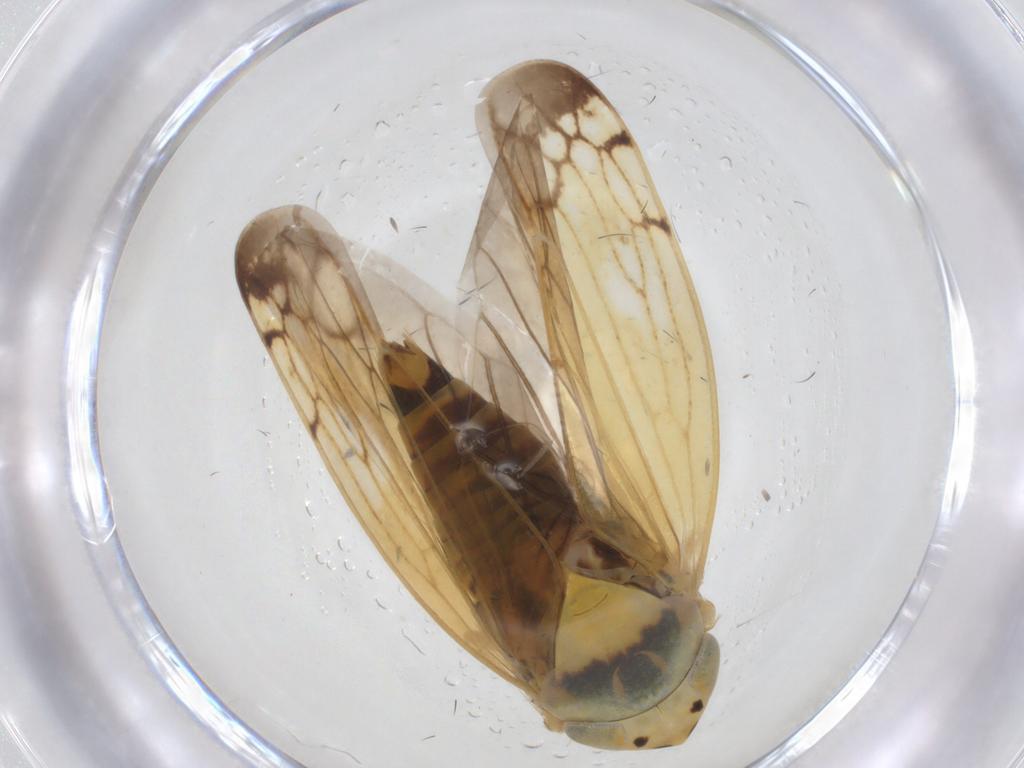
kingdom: Animalia
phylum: Arthropoda
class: Insecta
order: Hemiptera
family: Cicadellidae
